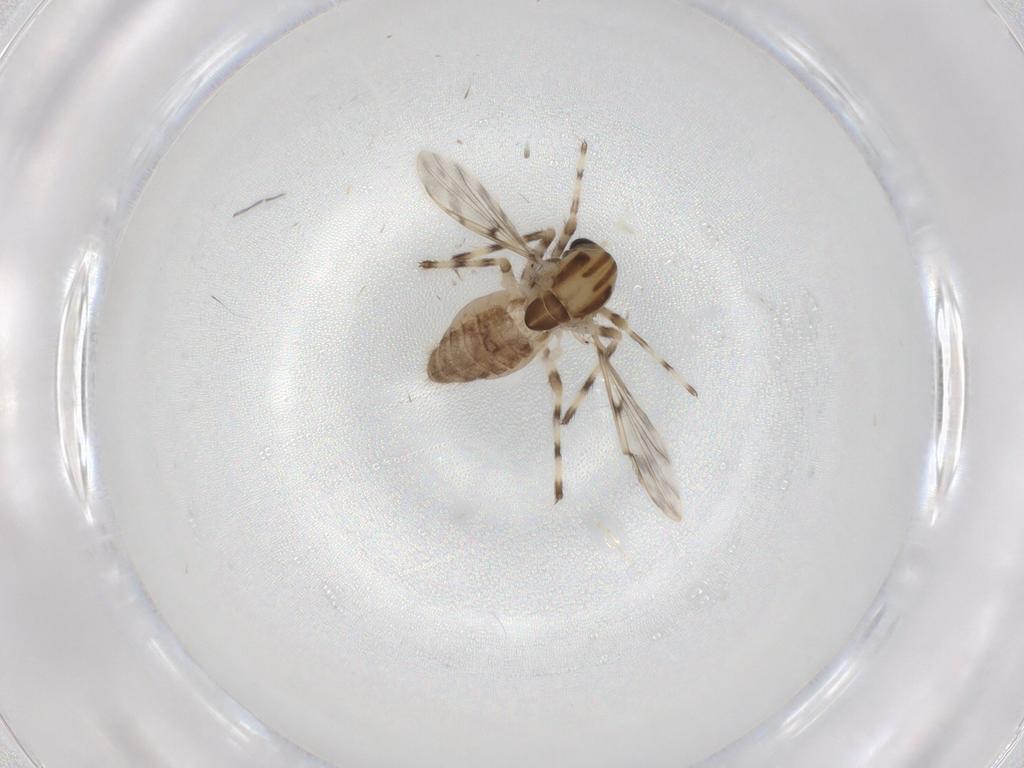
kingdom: Animalia
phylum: Arthropoda
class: Insecta
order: Diptera
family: Chironomidae
